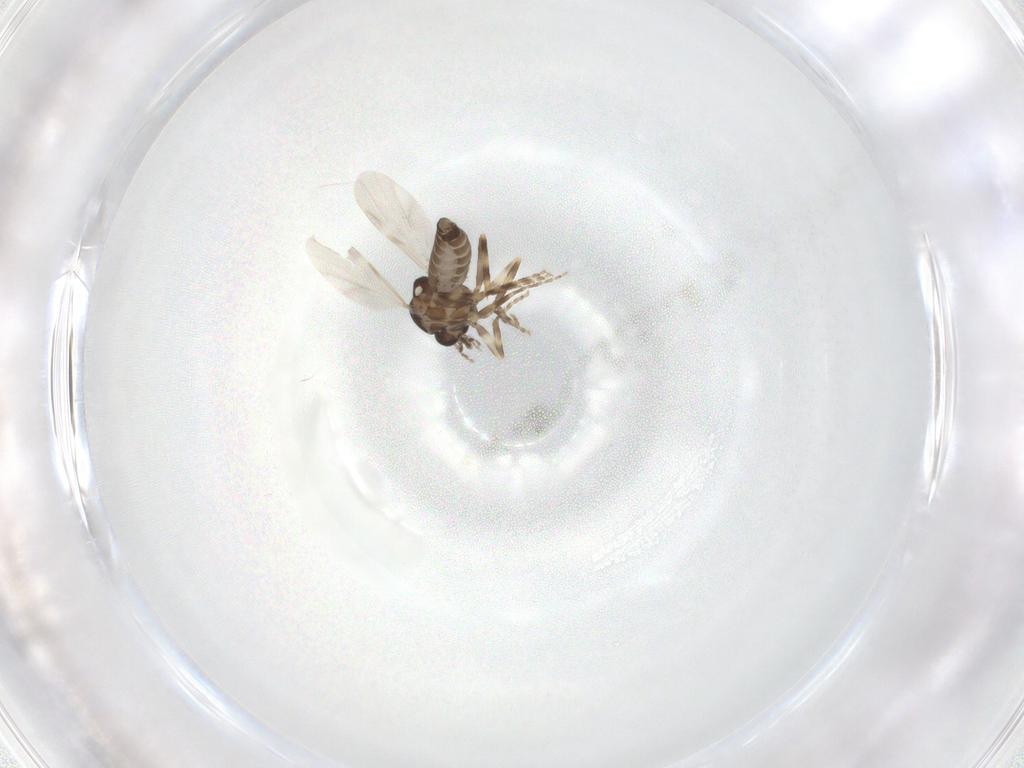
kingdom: Animalia
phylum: Arthropoda
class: Insecta
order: Diptera
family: Ceratopogonidae
